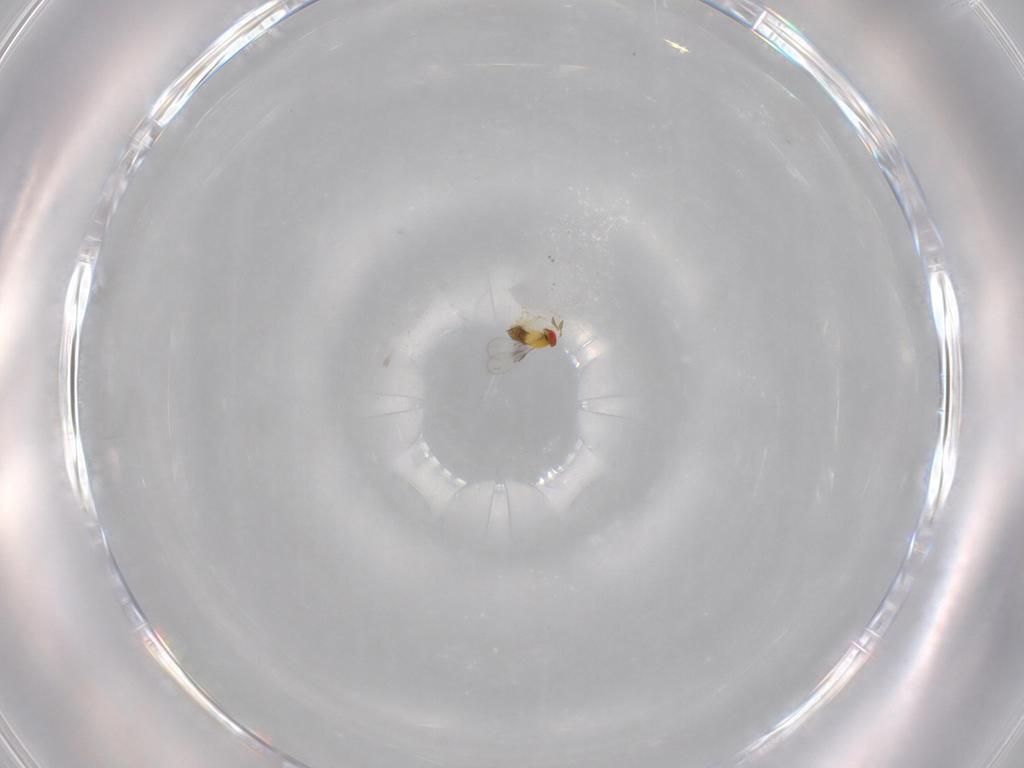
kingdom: Animalia
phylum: Arthropoda
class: Insecta
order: Hymenoptera
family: Trichogrammatidae
